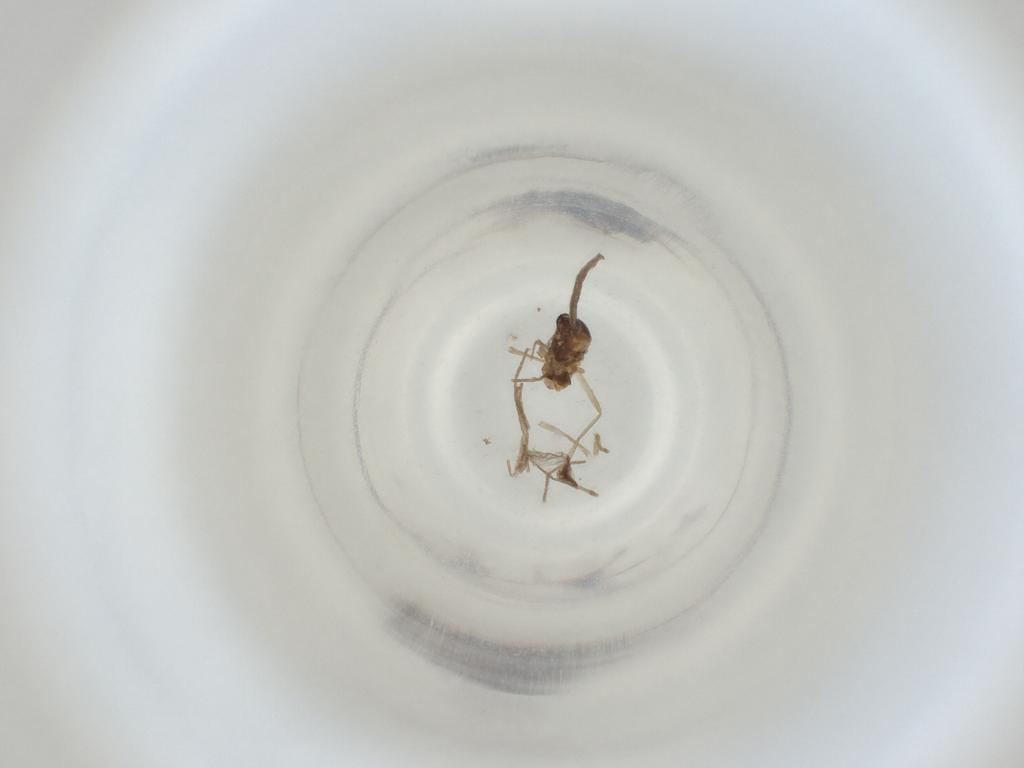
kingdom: Animalia
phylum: Arthropoda
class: Insecta
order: Diptera
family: Cecidomyiidae
